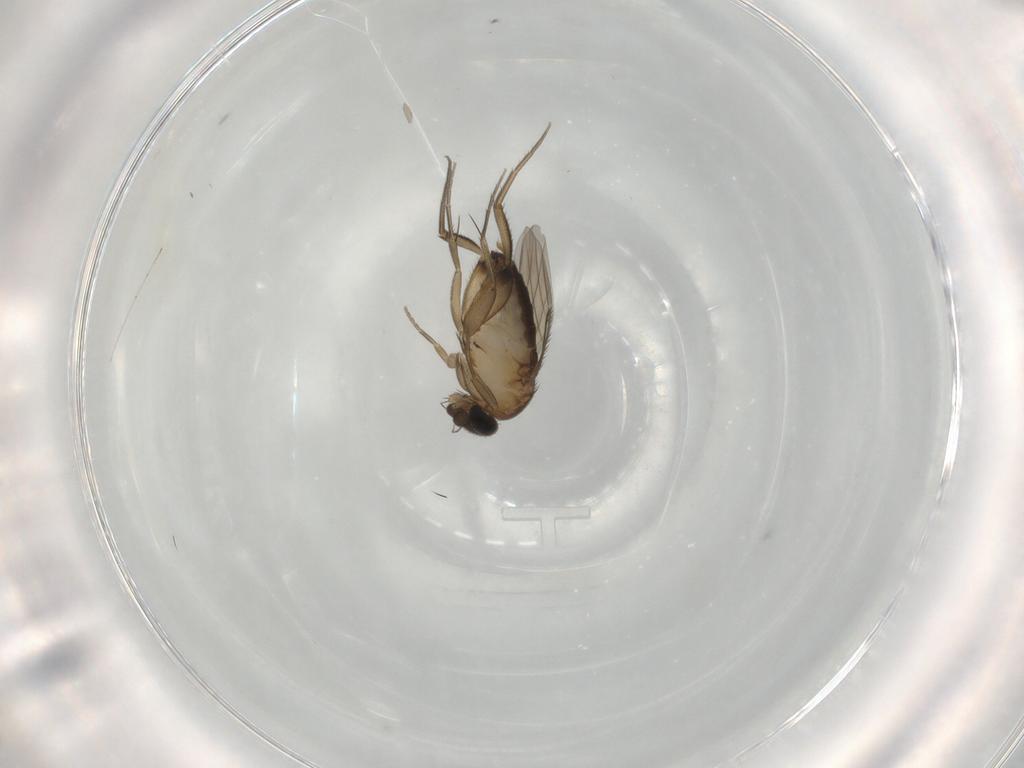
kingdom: Animalia
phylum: Arthropoda
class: Insecta
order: Diptera
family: Phoridae
